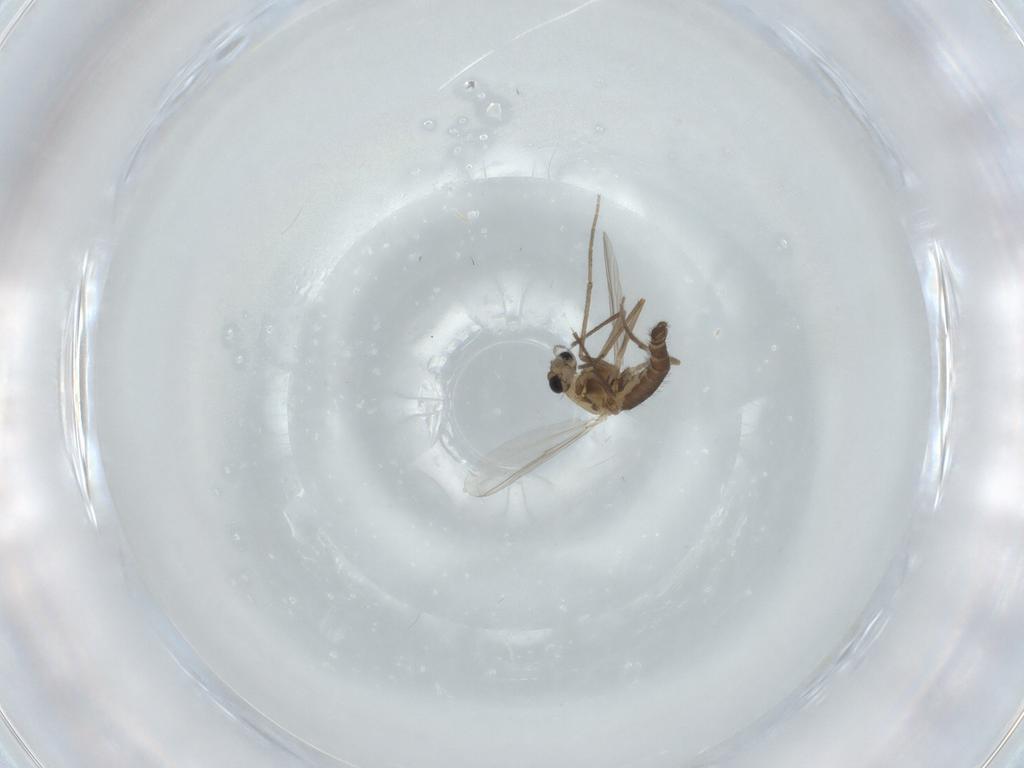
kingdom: Animalia
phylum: Arthropoda
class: Insecta
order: Diptera
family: Chironomidae
